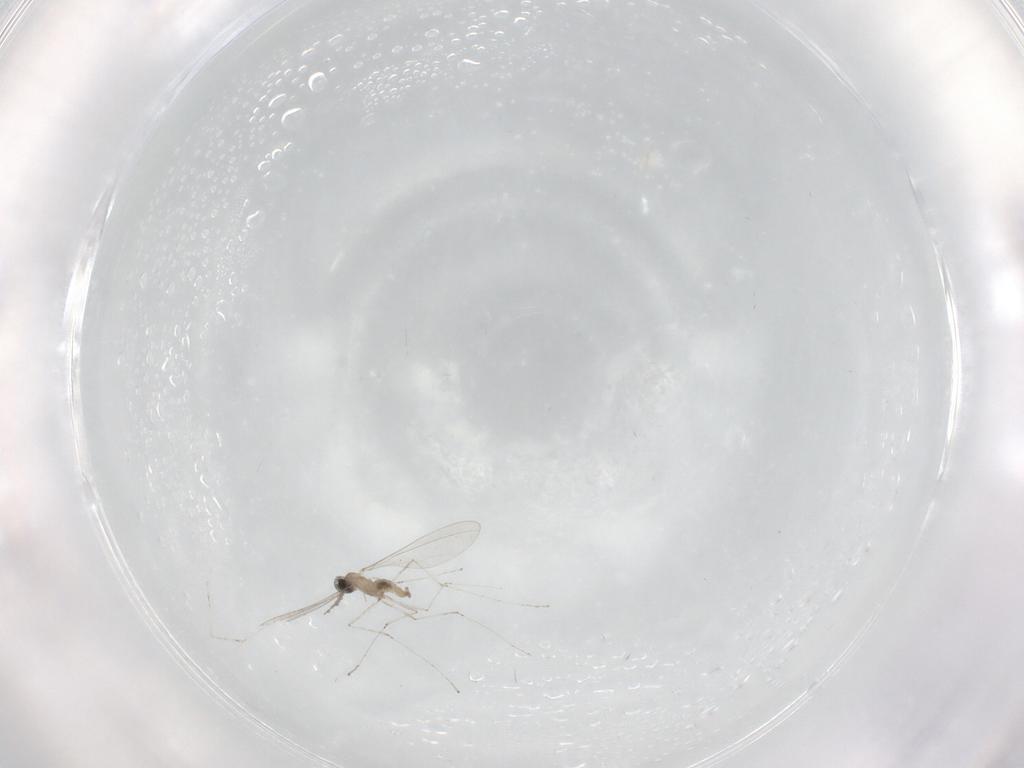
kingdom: Animalia
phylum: Arthropoda
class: Insecta
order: Diptera
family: Cecidomyiidae
